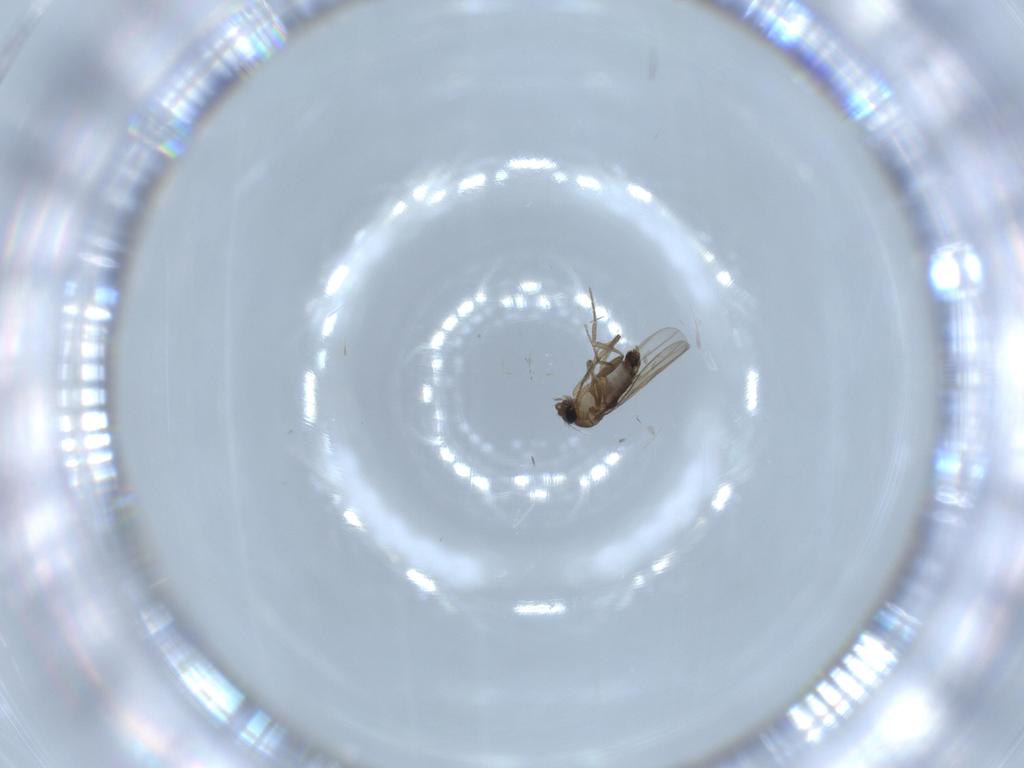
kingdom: Animalia
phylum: Arthropoda
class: Insecta
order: Diptera
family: Phoridae
